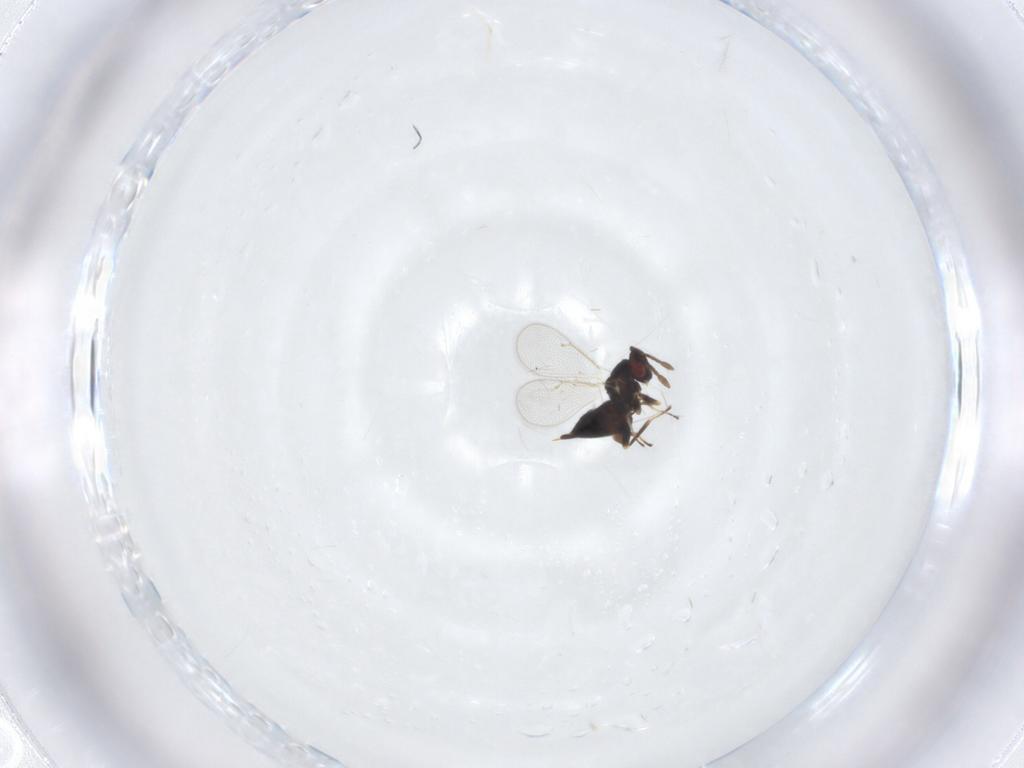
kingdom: Animalia
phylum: Arthropoda
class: Insecta
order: Hymenoptera
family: Eulophidae
